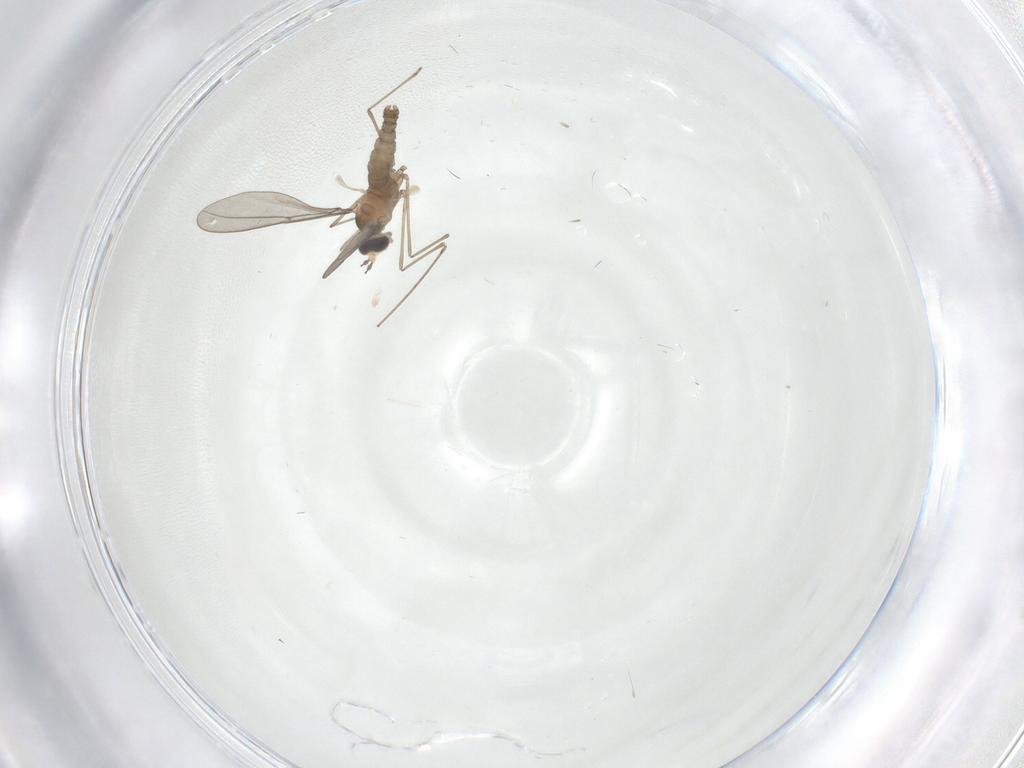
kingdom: Animalia
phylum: Arthropoda
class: Insecta
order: Diptera
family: Cecidomyiidae
